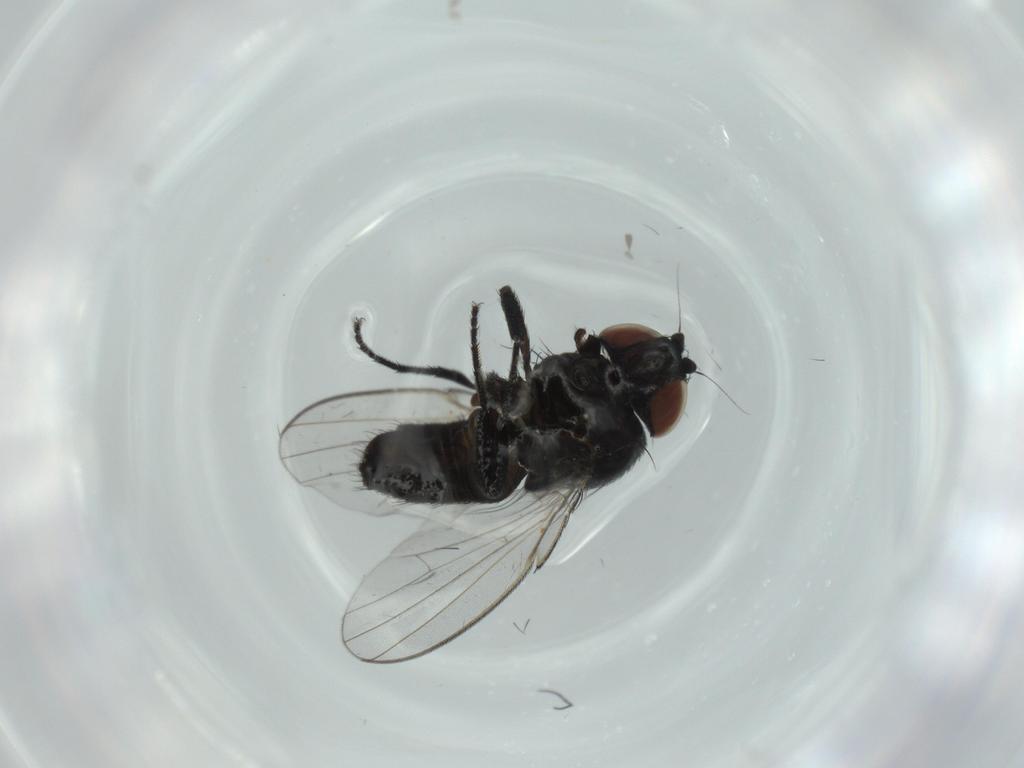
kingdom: Animalia
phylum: Arthropoda
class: Insecta
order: Diptera
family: Milichiidae
